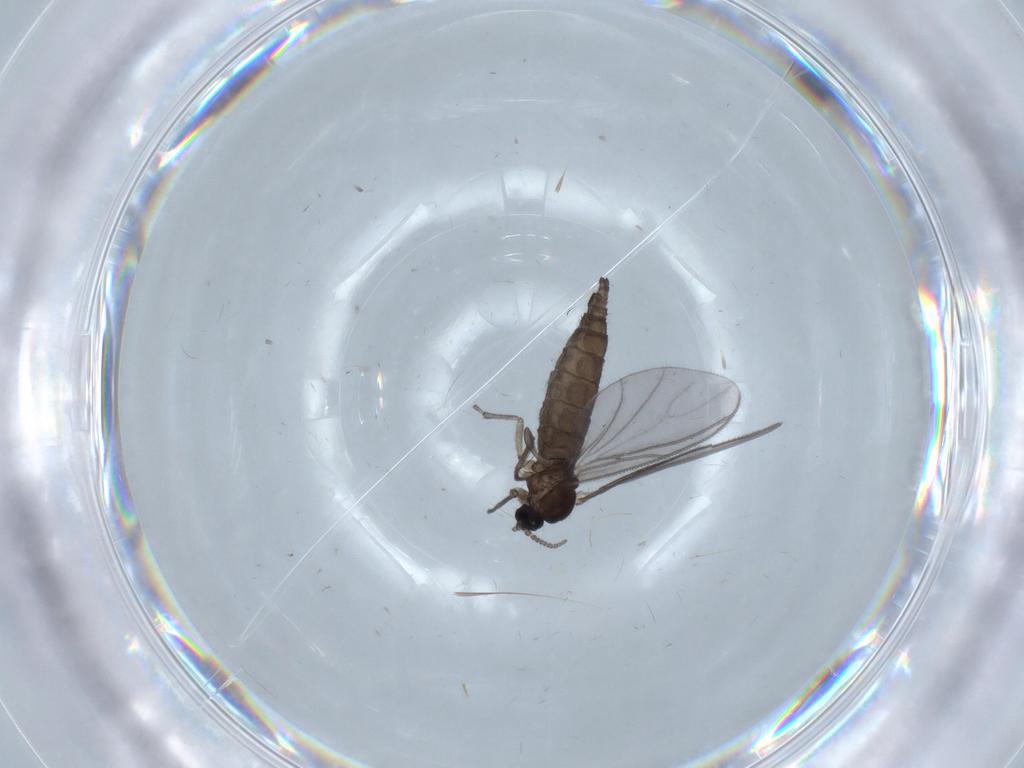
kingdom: Animalia
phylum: Arthropoda
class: Insecta
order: Diptera
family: Sciaridae
